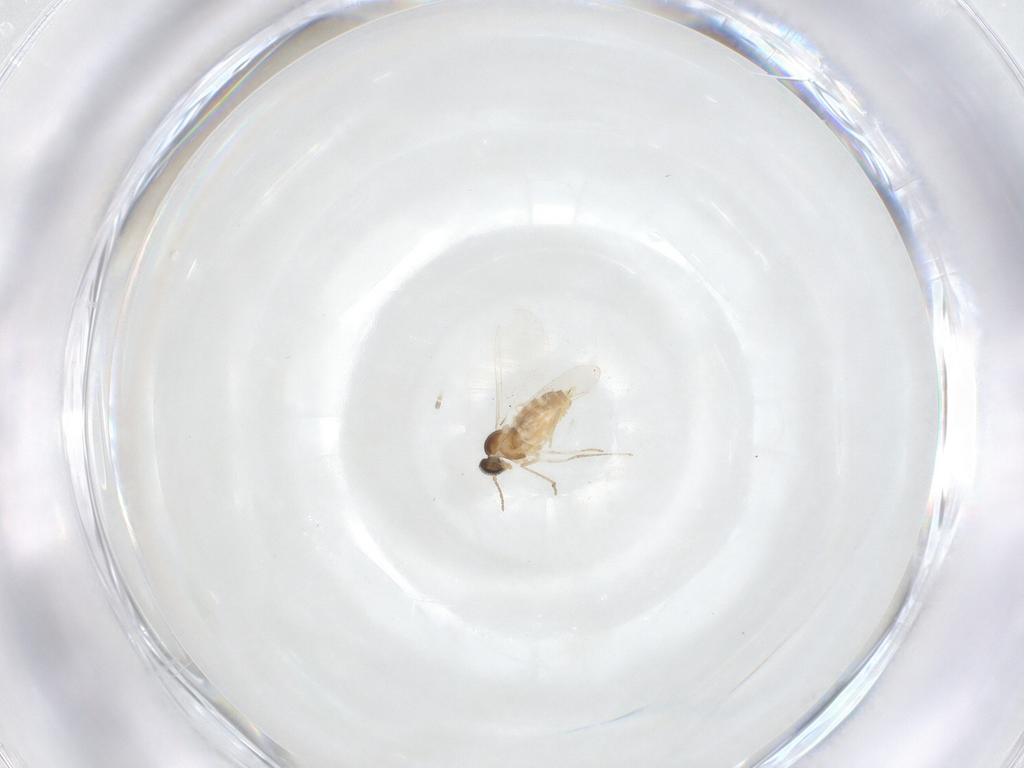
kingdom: Animalia
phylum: Arthropoda
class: Insecta
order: Diptera
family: Cecidomyiidae
